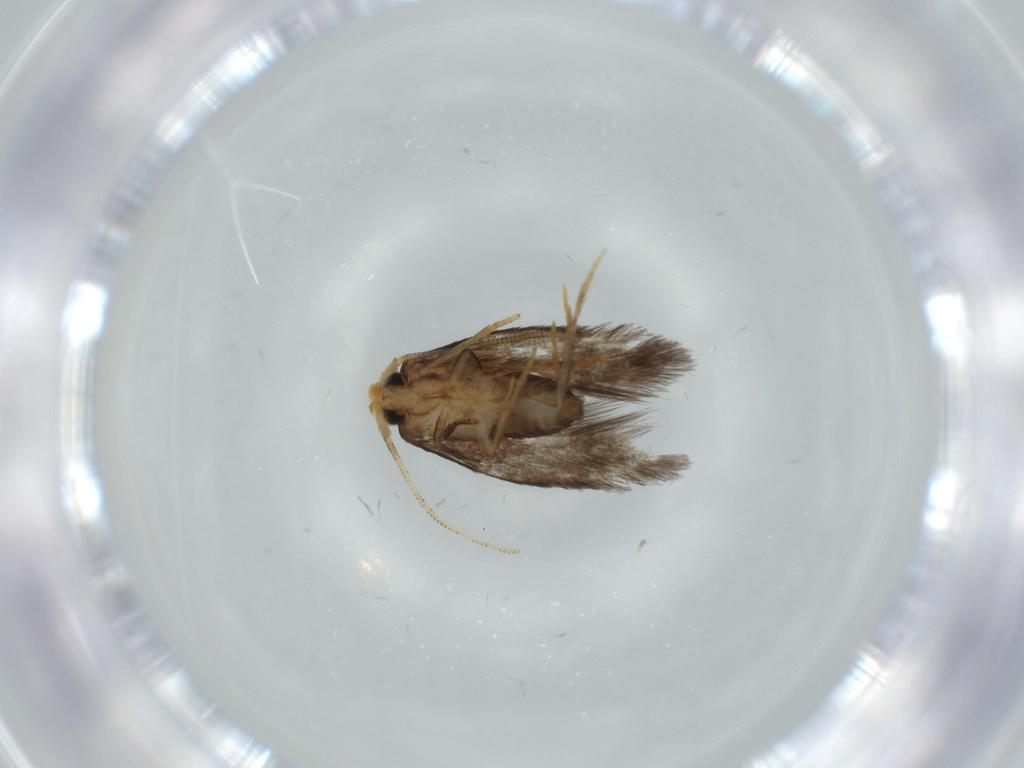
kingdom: Animalia
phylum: Arthropoda
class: Insecta
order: Lepidoptera
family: Nepticulidae
